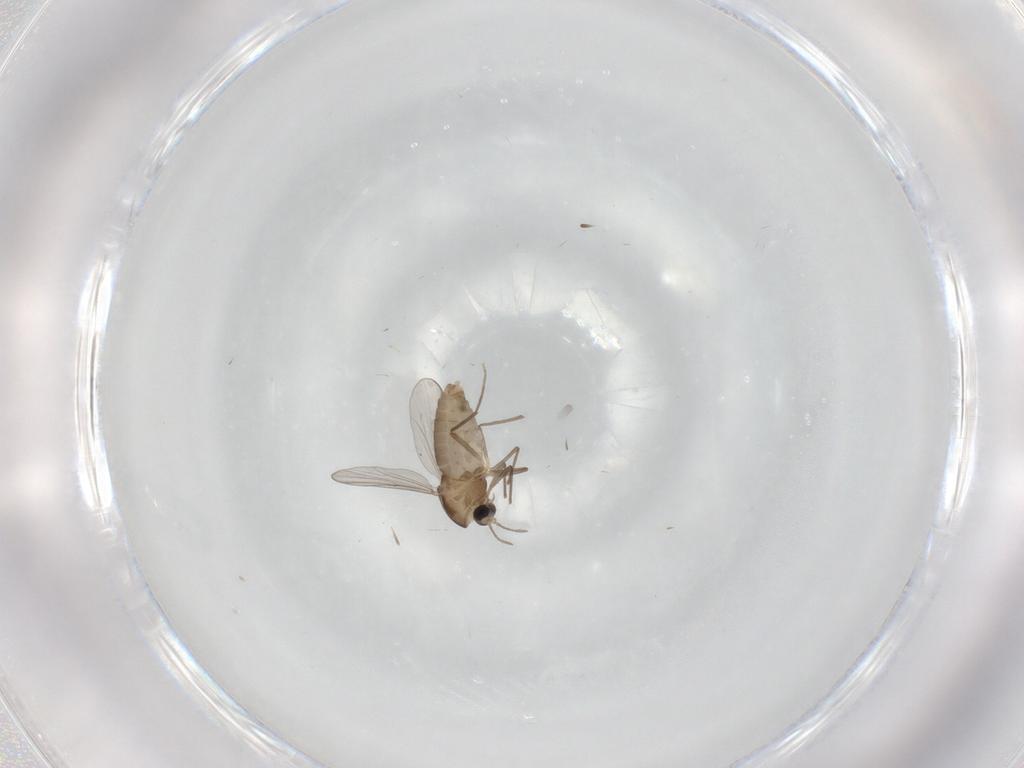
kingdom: Animalia
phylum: Arthropoda
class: Insecta
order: Diptera
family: Chironomidae
